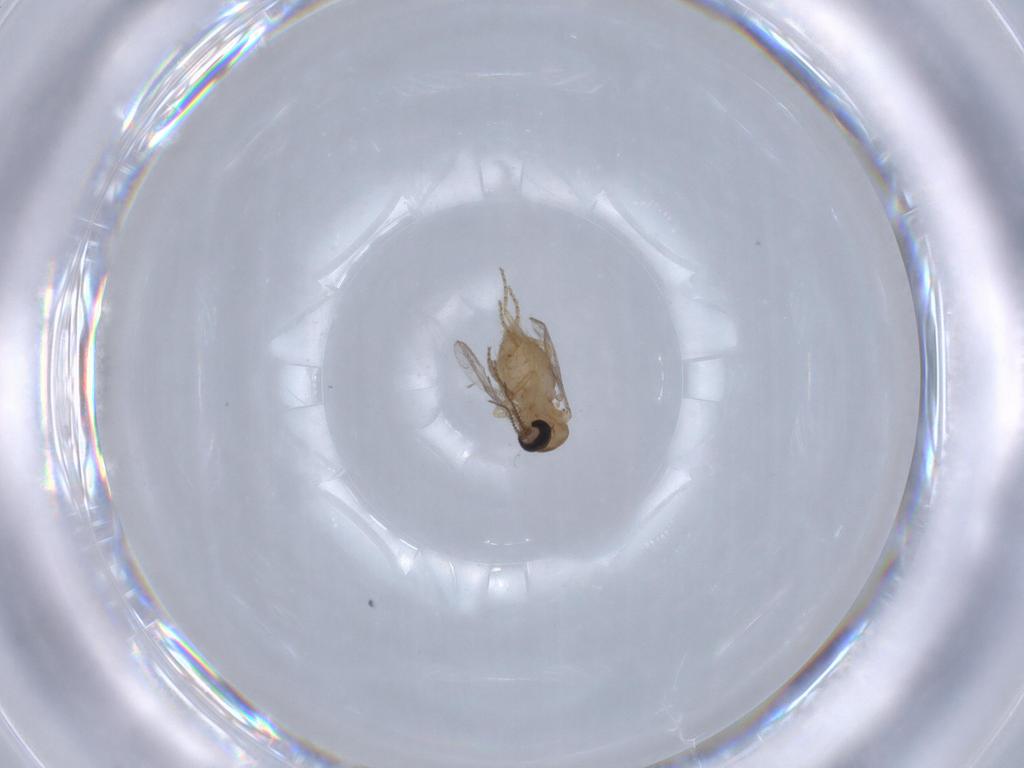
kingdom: Animalia
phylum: Arthropoda
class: Insecta
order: Diptera
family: Ceratopogonidae
